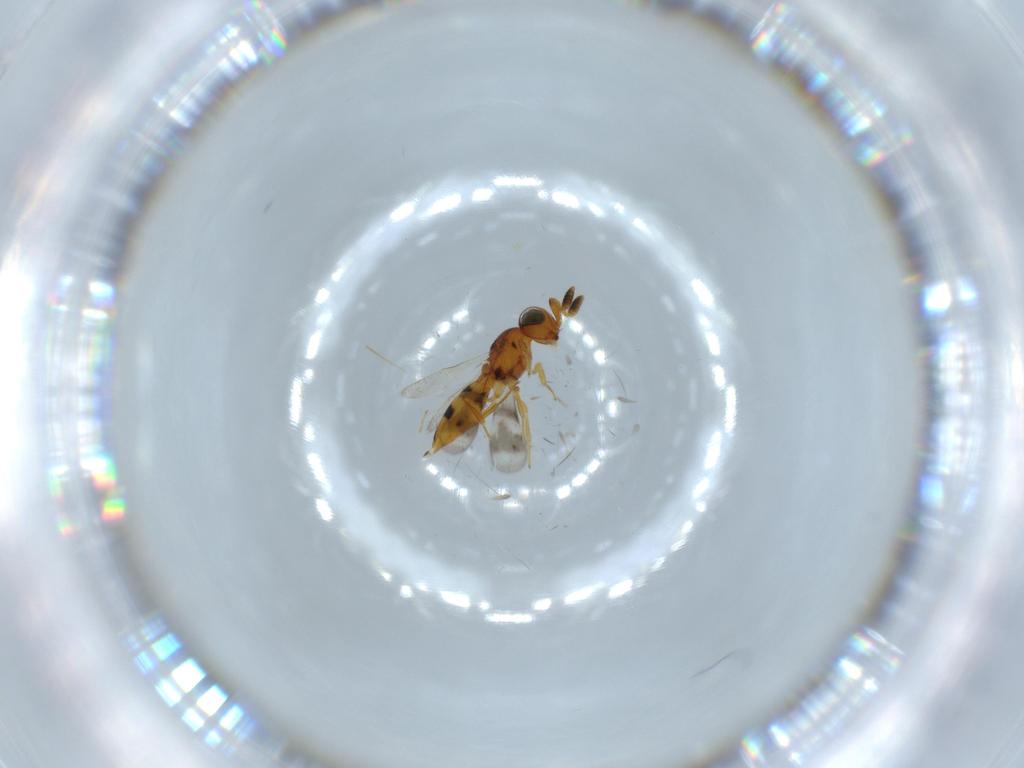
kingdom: Animalia
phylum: Arthropoda
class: Insecta
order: Hymenoptera
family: Scelionidae
